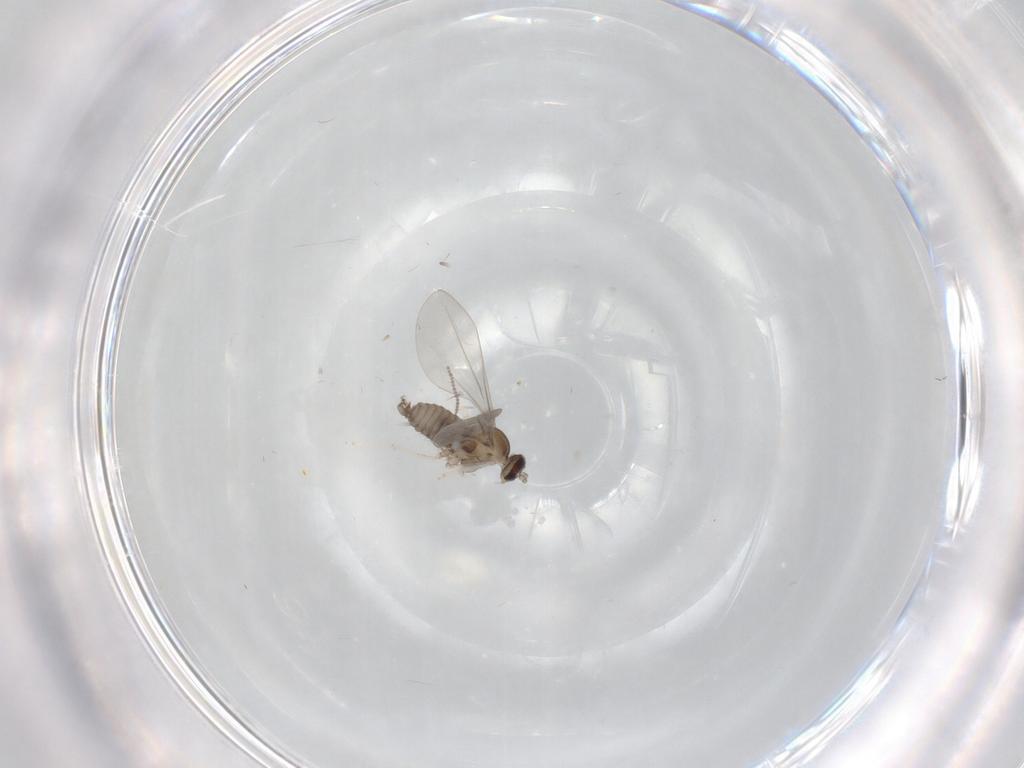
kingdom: Animalia
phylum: Arthropoda
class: Insecta
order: Diptera
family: Cecidomyiidae
